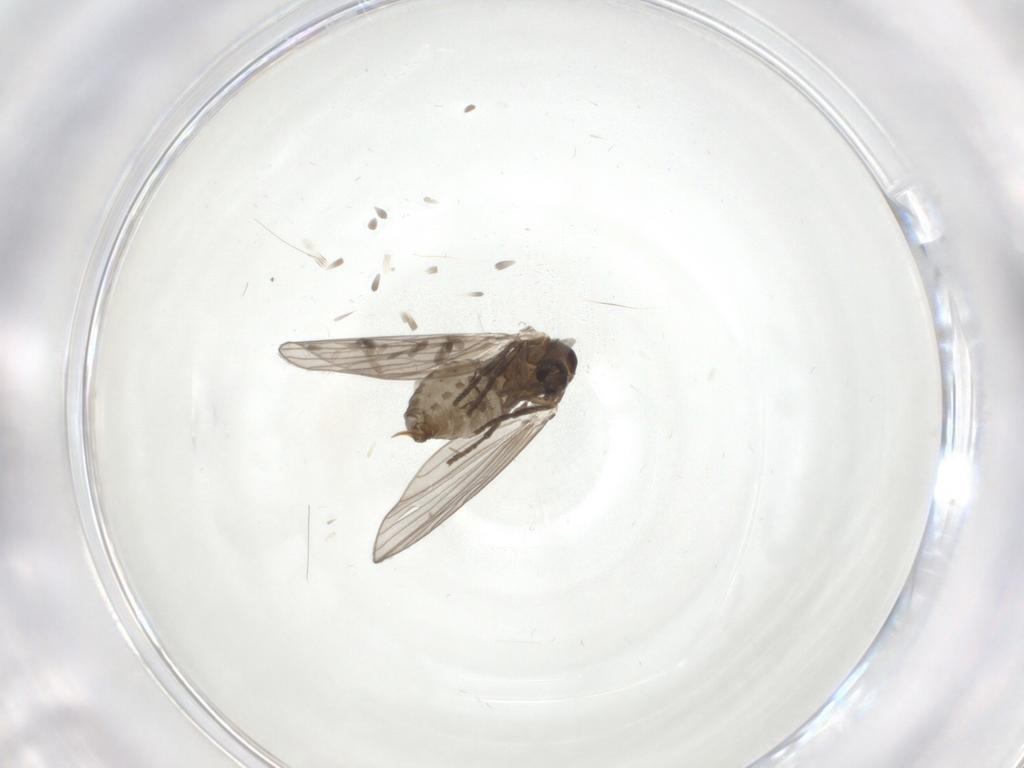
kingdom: Animalia
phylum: Arthropoda
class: Insecta
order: Diptera
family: Psychodidae
